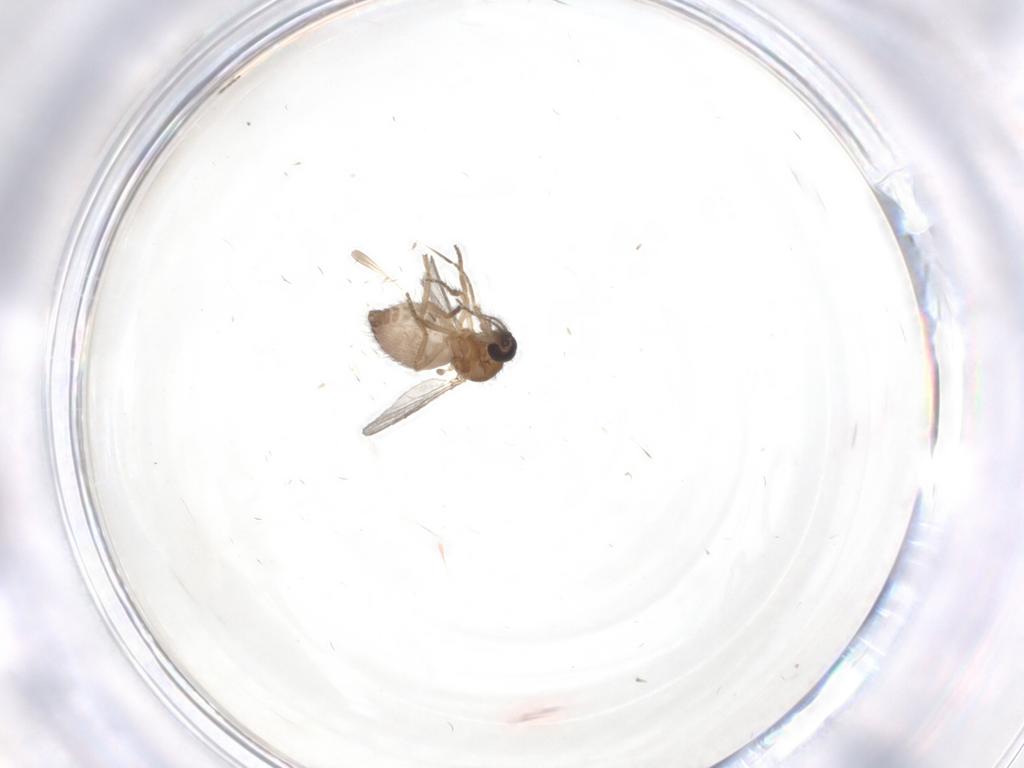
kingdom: Animalia
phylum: Arthropoda
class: Insecta
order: Diptera
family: Ceratopogonidae
